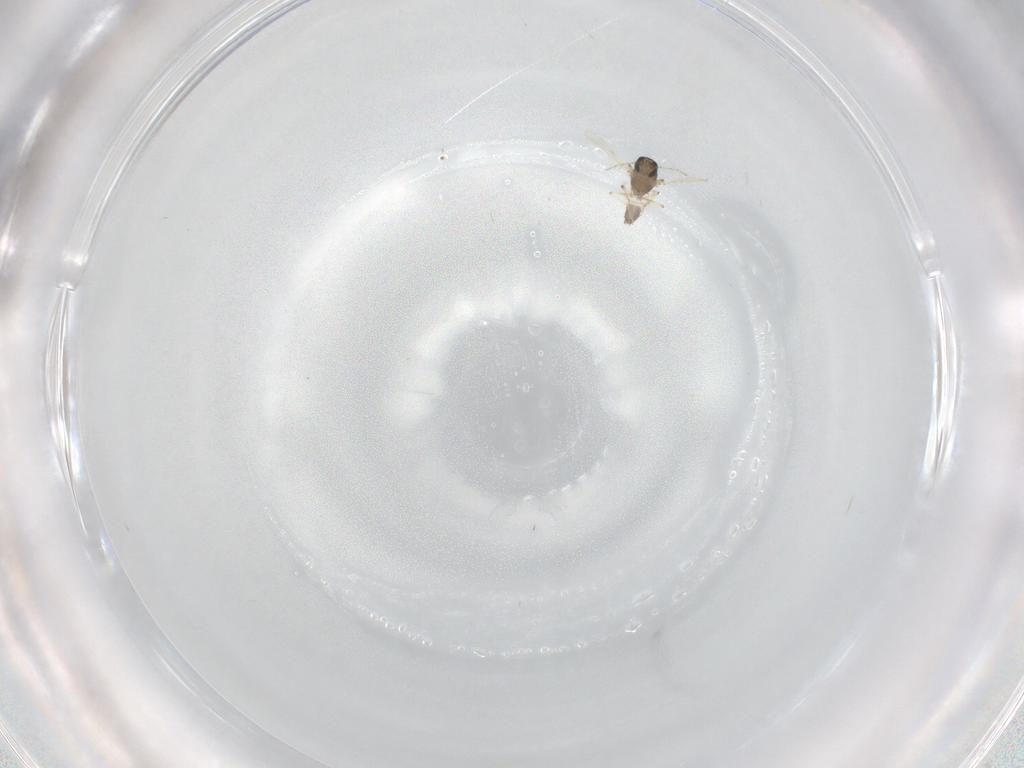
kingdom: Animalia
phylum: Arthropoda
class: Insecta
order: Diptera
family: Ceratopogonidae
